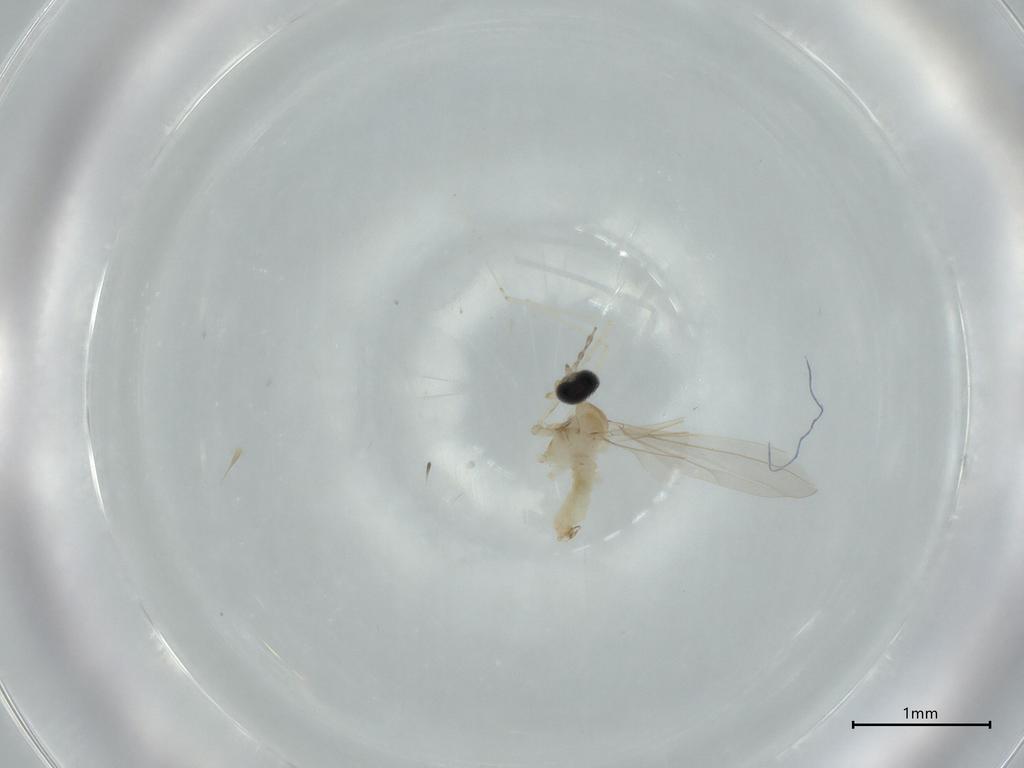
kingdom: Animalia
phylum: Arthropoda
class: Insecta
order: Diptera
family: Cecidomyiidae
